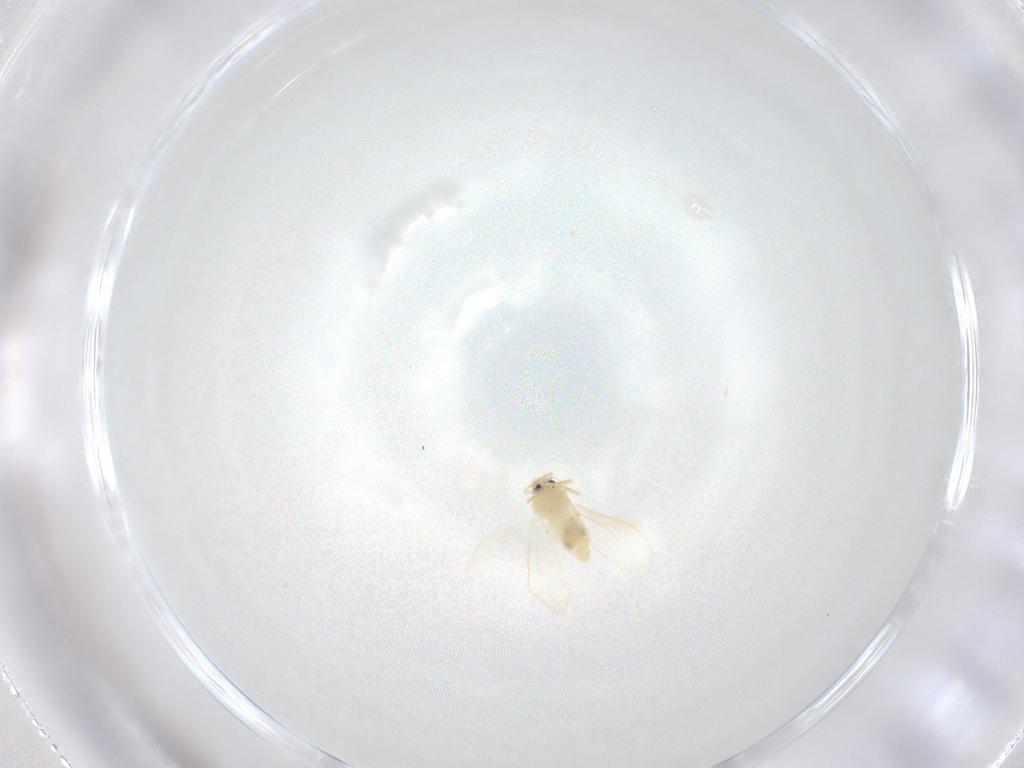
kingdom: Animalia
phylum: Arthropoda
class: Insecta
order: Hemiptera
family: Aleyrodidae
